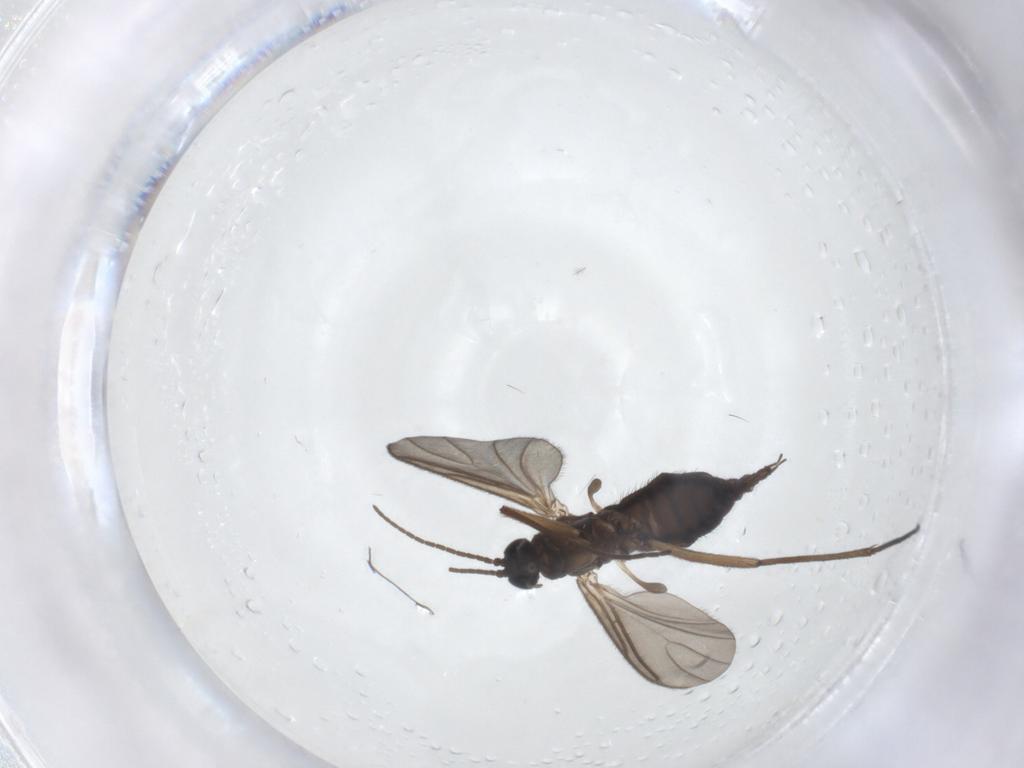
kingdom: Animalia
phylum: Arthropoda
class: Insecta
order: Diptera
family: Sciaridae
